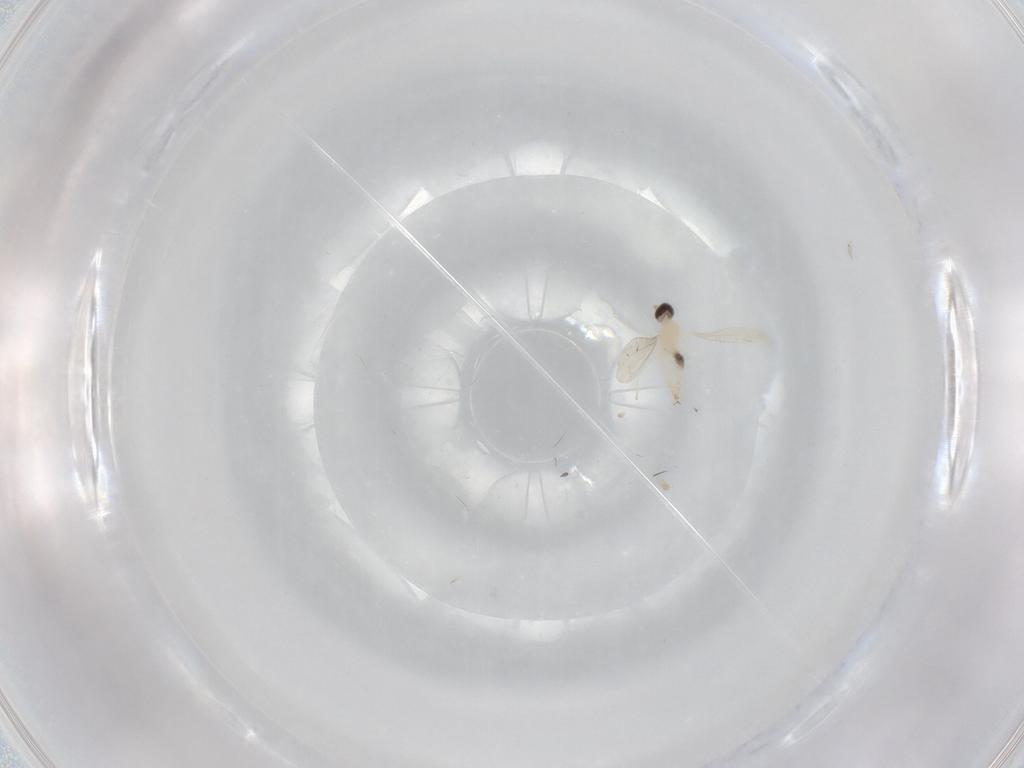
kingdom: Animalia
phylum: Arthropoda
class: Insecta
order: Diptera
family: Cecidomyiidae
